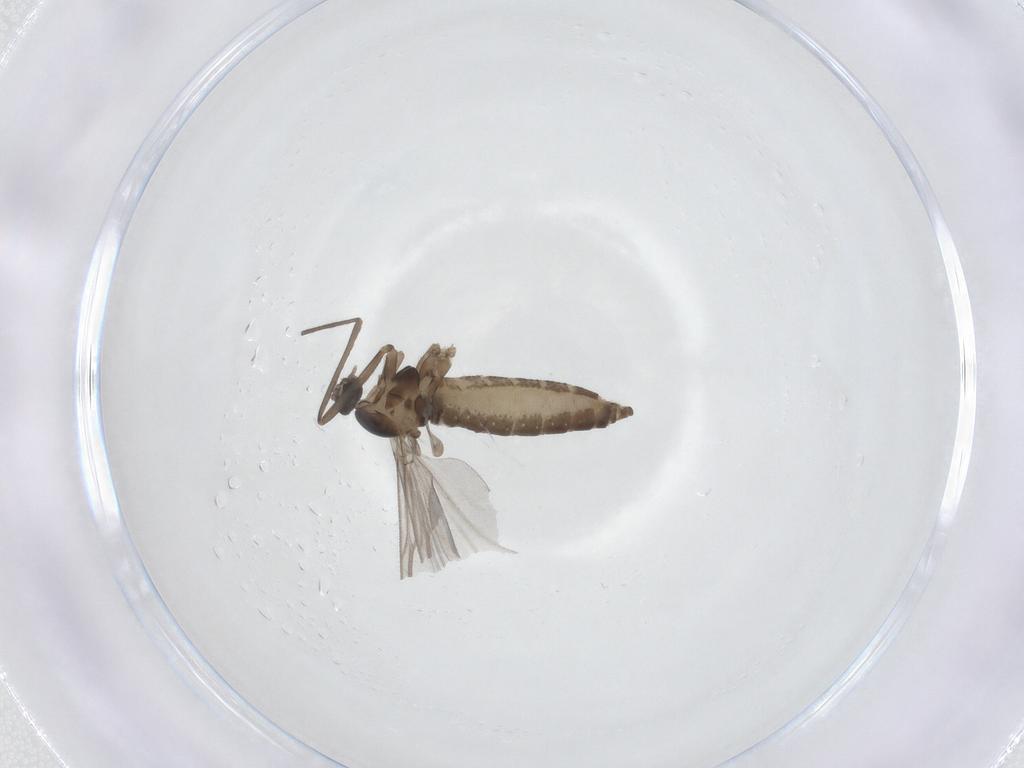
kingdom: Animalia
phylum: Arthropoda
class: Insecta
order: Diptera
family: Cecidomyiidae
